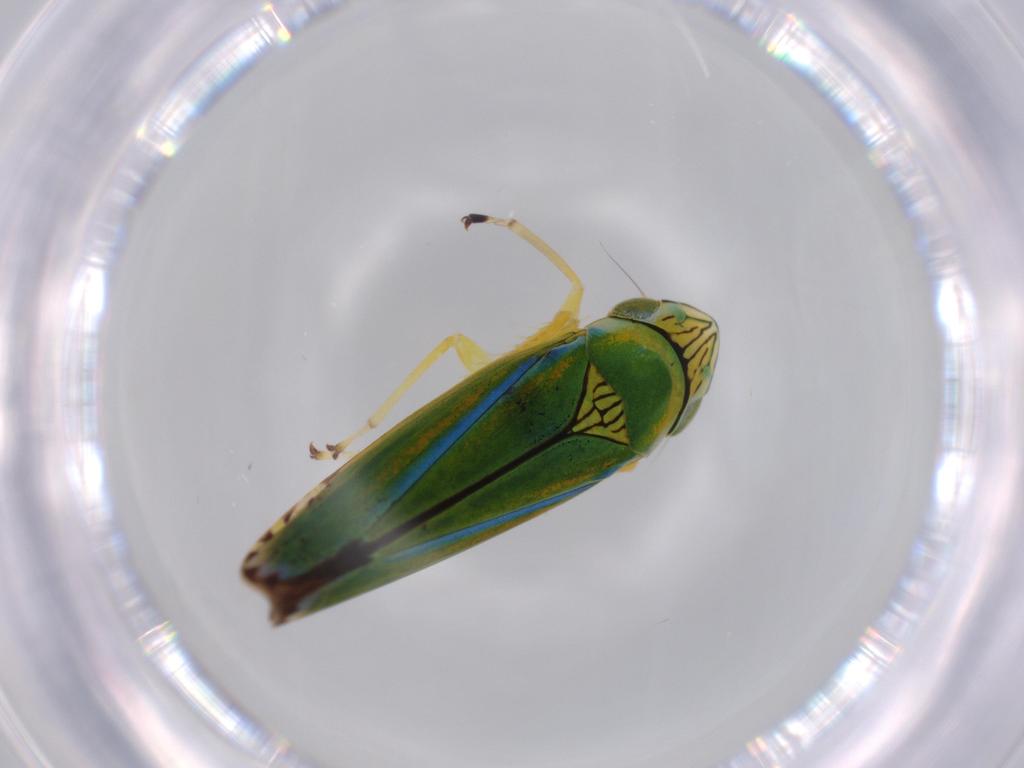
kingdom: Animalia
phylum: Arthropoda
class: Insecta
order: Hemiptera
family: Cicadellidae
